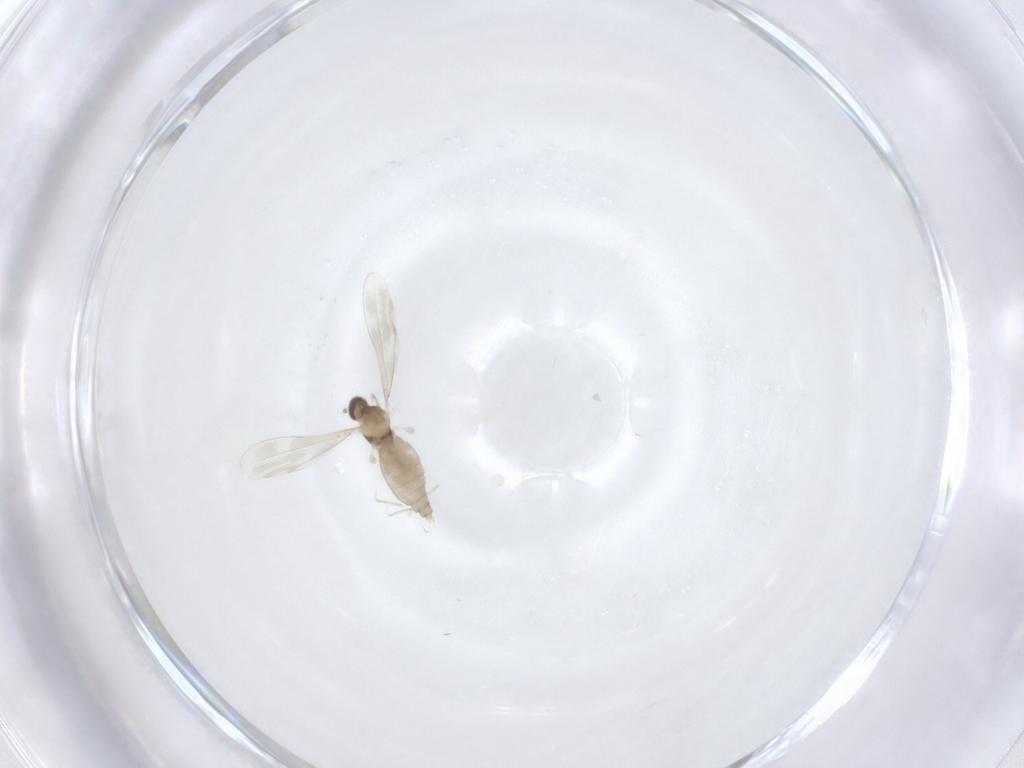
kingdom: Animalia
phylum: Arthropoda
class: Insecta
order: Diptera
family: Cecidomyiidae
